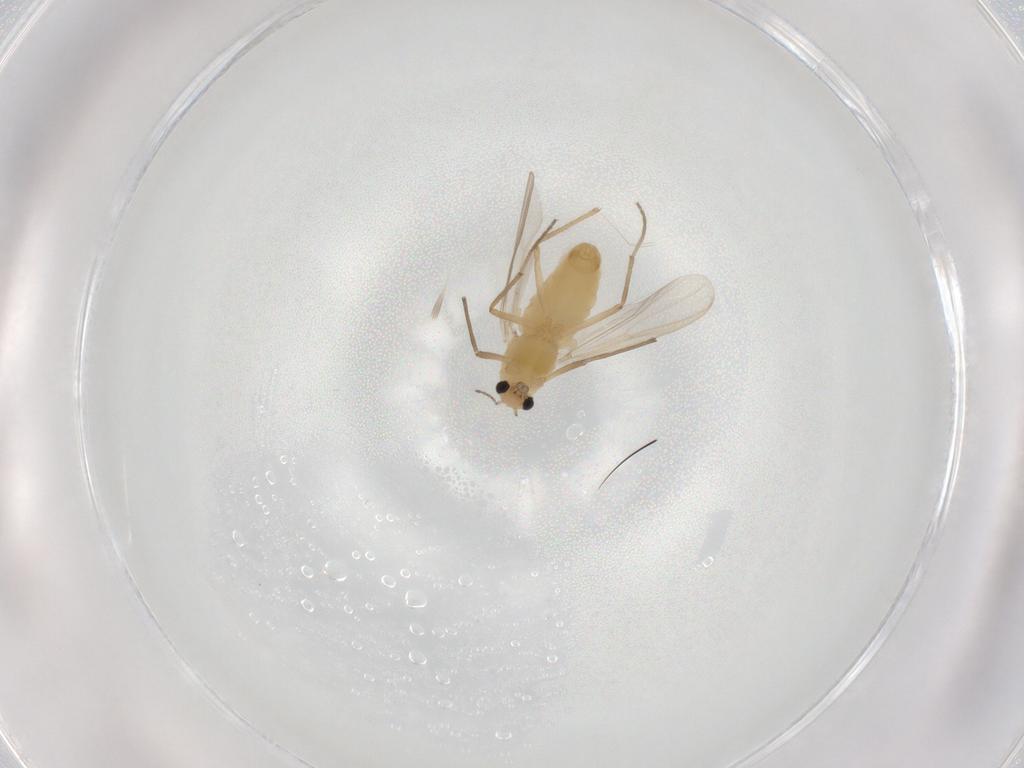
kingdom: Animalia
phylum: Arthropoda
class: Insecta
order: Diptera
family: Chironomidae
